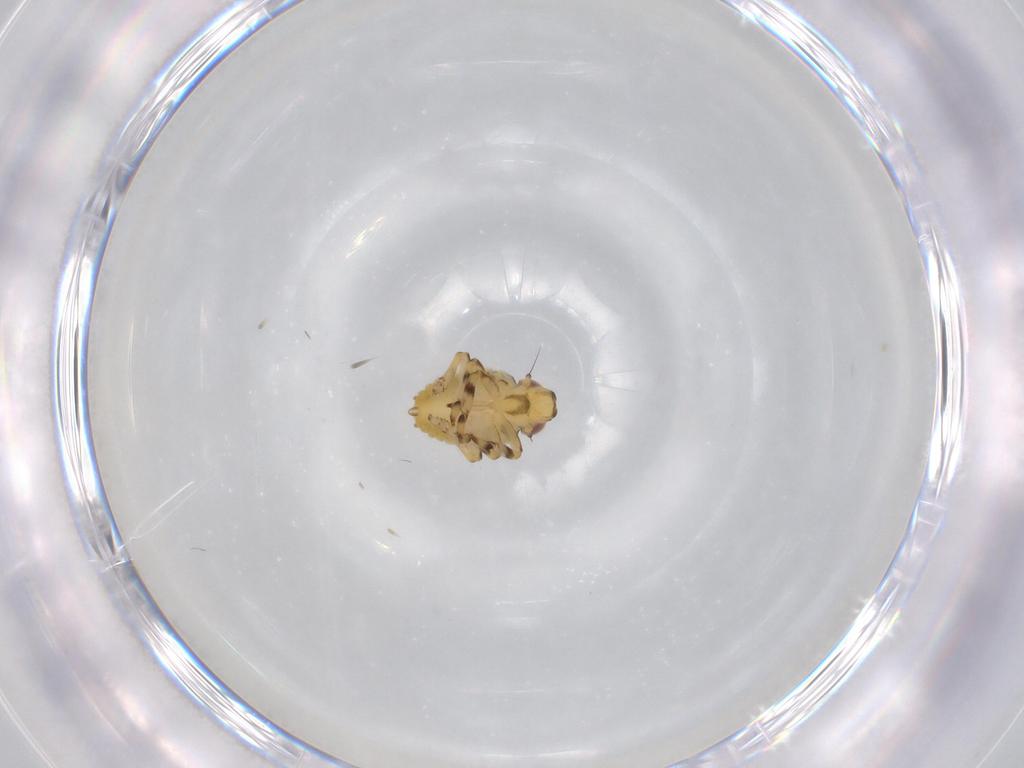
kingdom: Animalia
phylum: Arthropoda
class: Insecta
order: Hemiptera
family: Issidae
